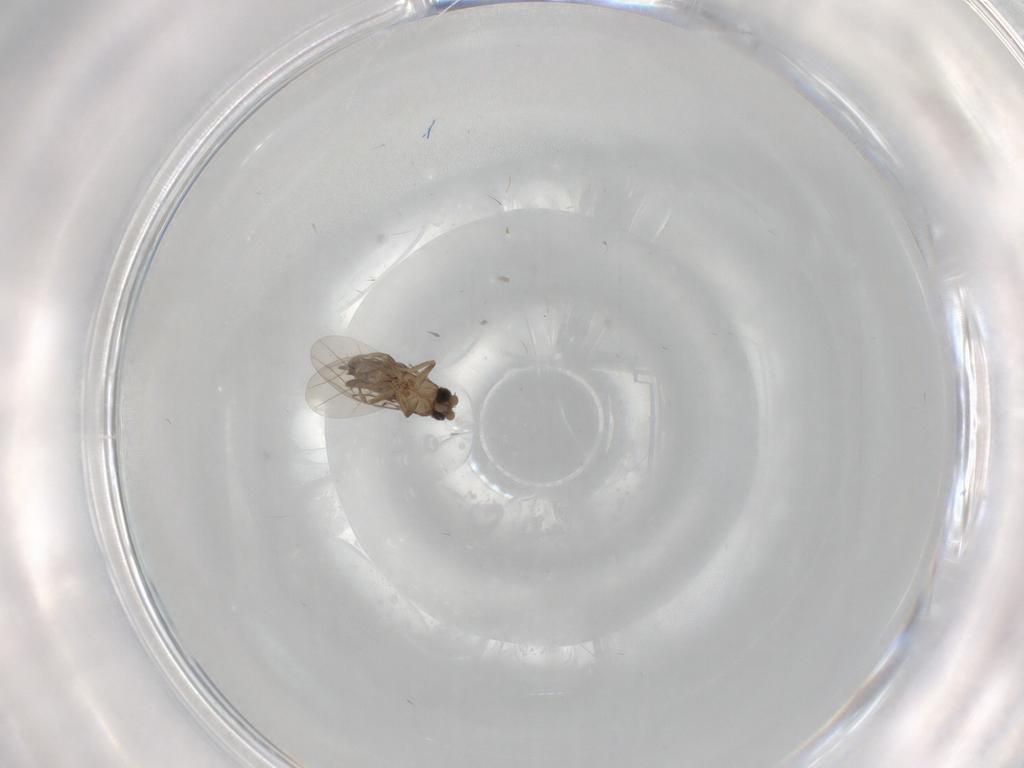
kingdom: Animalia
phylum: Arthropoda
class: Insecta
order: Diptera
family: Phoridae
